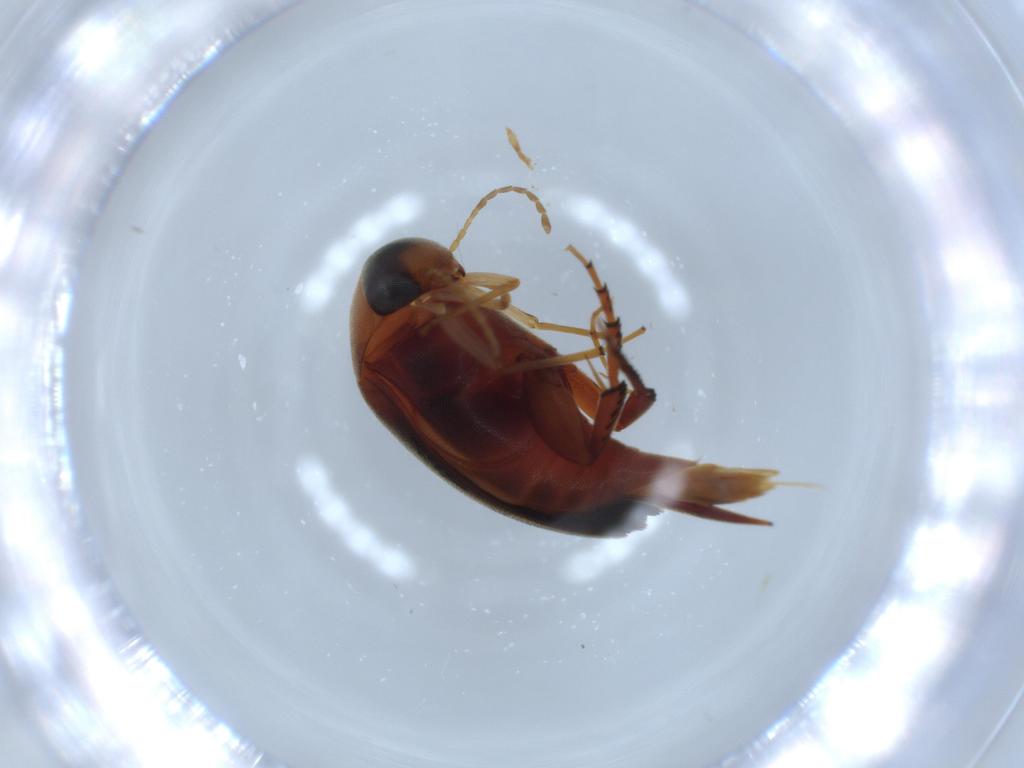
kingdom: Animalia
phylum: Arthropoda
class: Insecta
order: Coleoptera
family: Mordellidae
